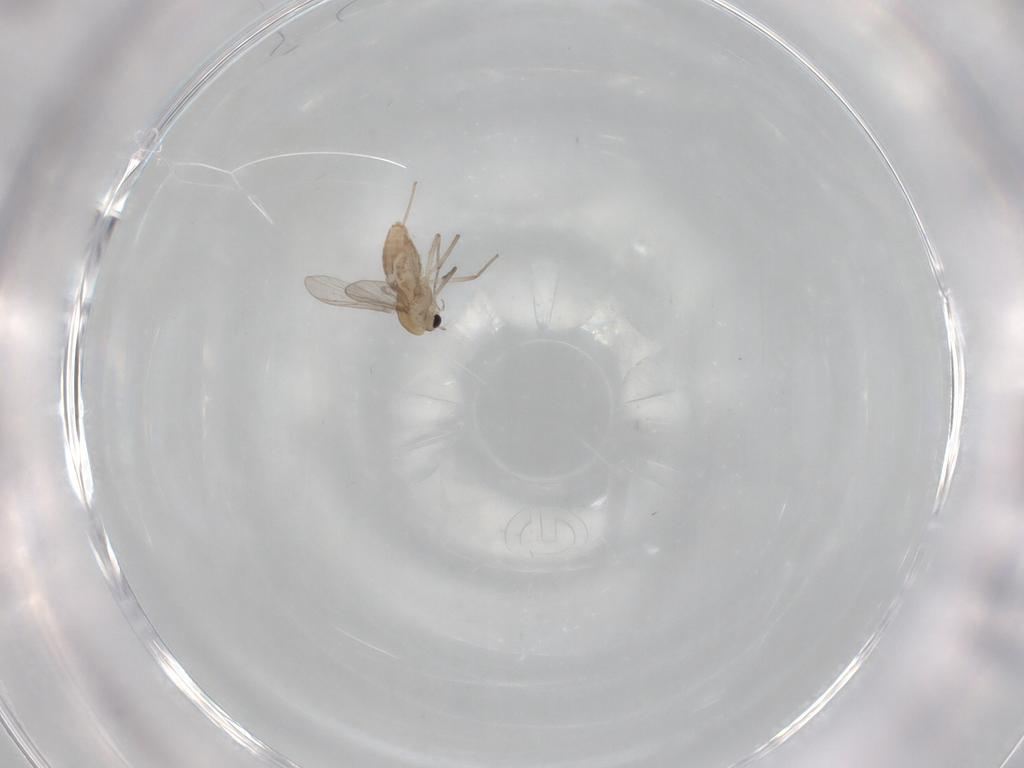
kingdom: Animalia
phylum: Arthropoda
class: Insecta
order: Diptera
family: Chironomidae
